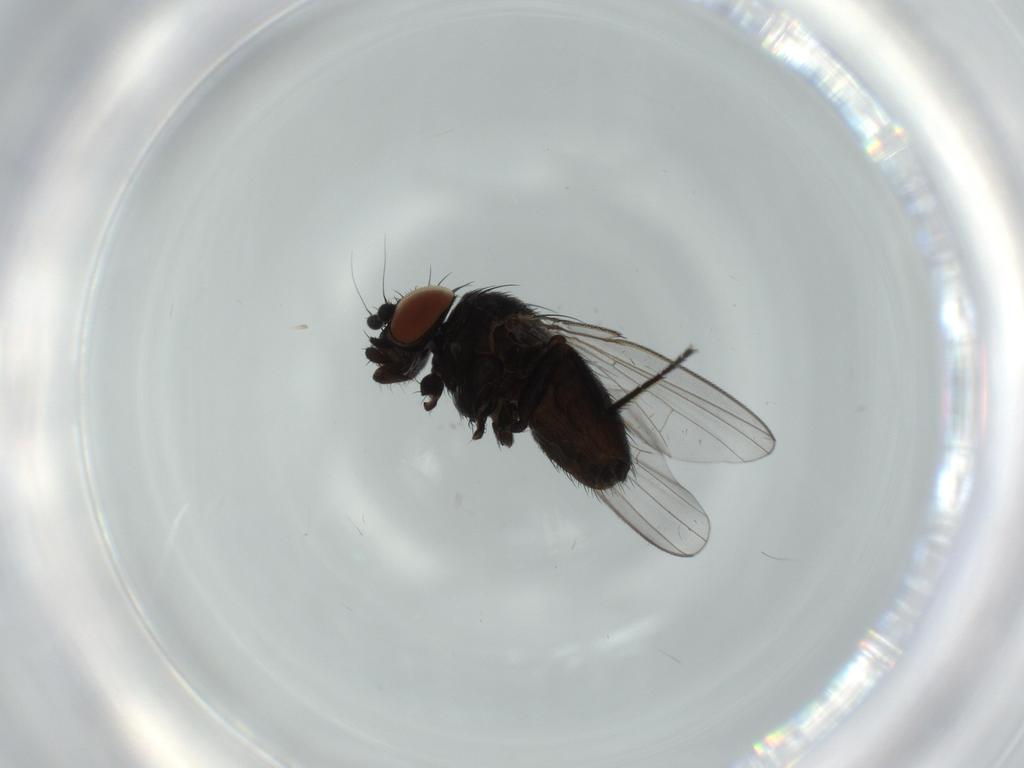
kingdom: Animalia
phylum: Arthropoda
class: Insecta
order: Diptera
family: Milichiidae
